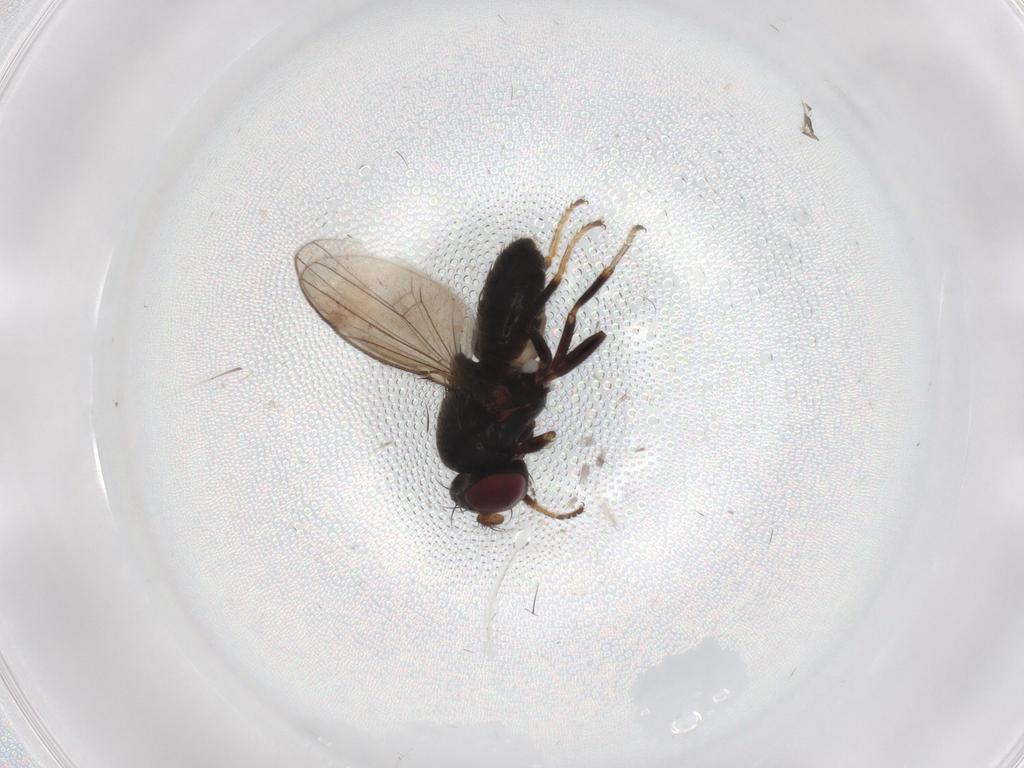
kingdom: Animalia
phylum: Arthropoda
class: Insecta
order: Diptera
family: Ephydridae
